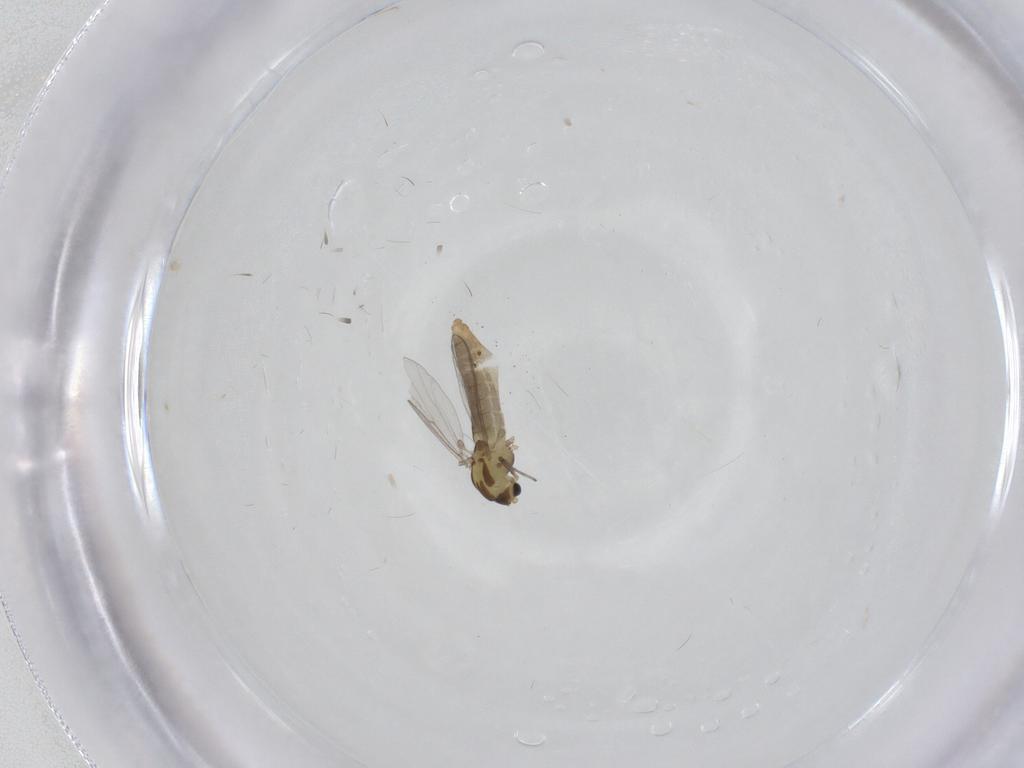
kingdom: Animalia
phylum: Arthropoda
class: Insecta
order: Diptera
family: Chironomidae
